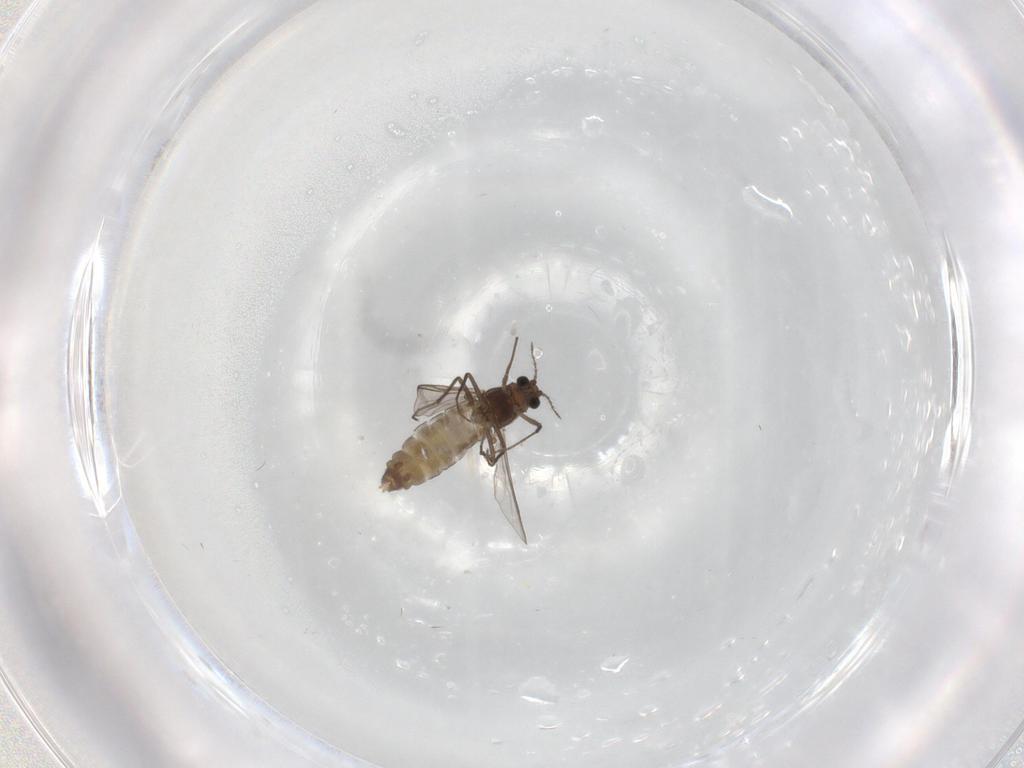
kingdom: Animalia
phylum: Arthropoda
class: Insecta
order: Diptera
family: Chironomidae
